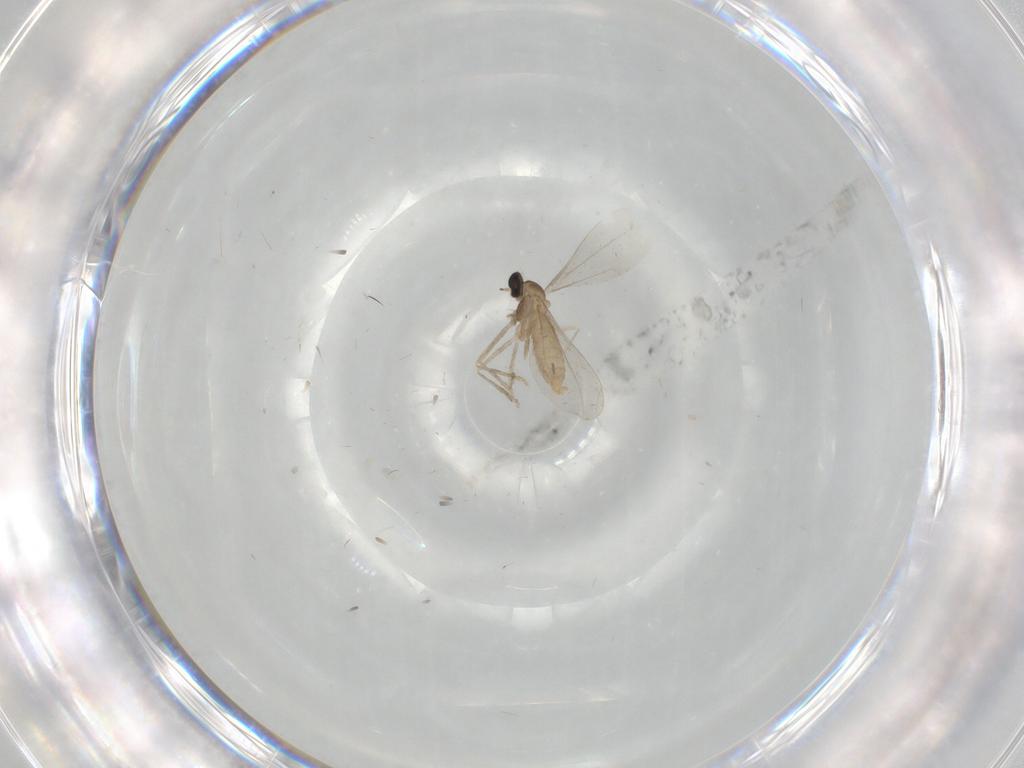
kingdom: Animalia
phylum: Arthropoda
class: Insecta
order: Diptera
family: Cecidomyiidae
